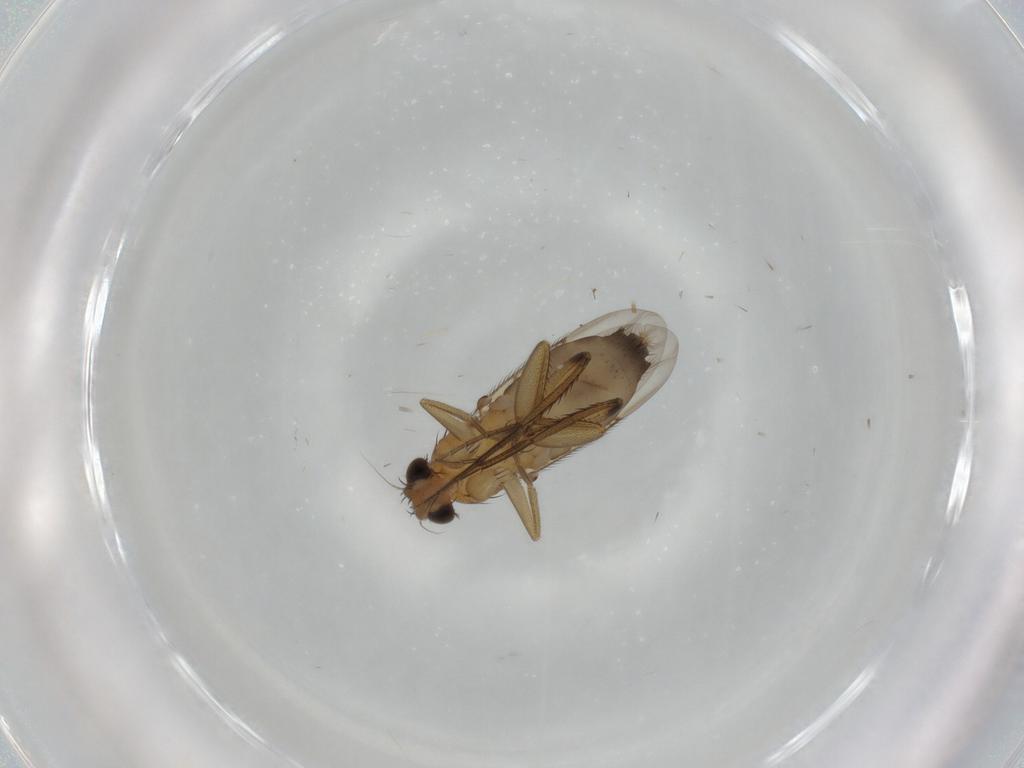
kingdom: Animalia
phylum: Arthropoda
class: Insecta
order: Diptera
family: Phoridae
